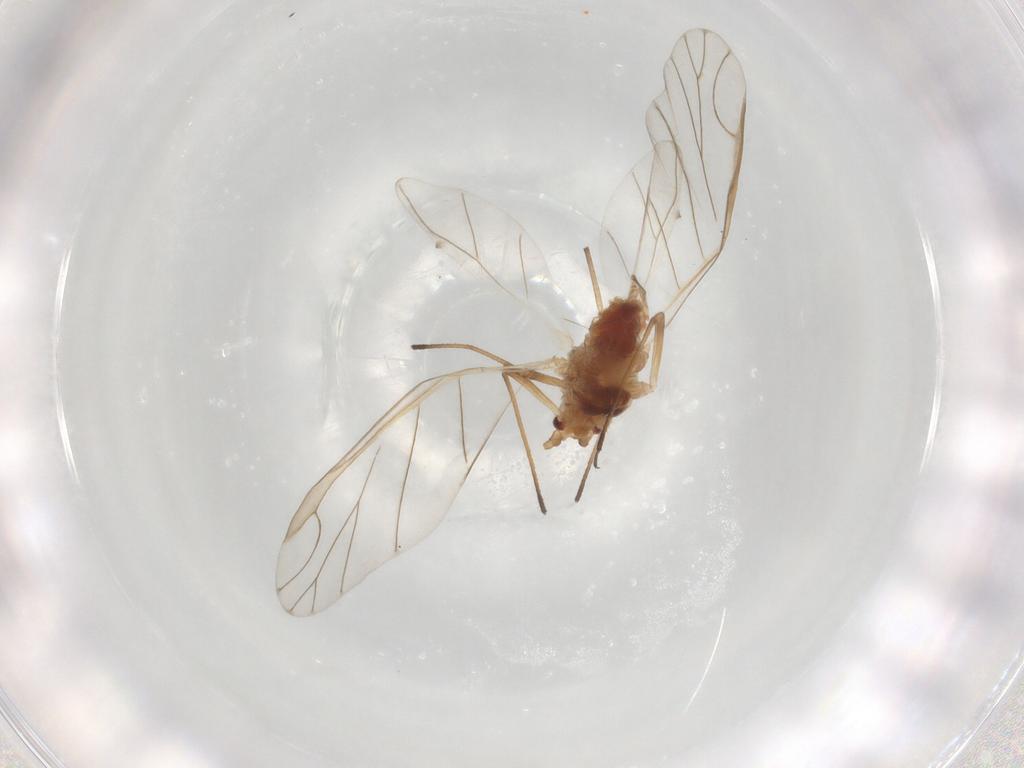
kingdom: Animalia
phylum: Arthropoda
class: Insecta
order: Hemiptera
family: Aphididae
